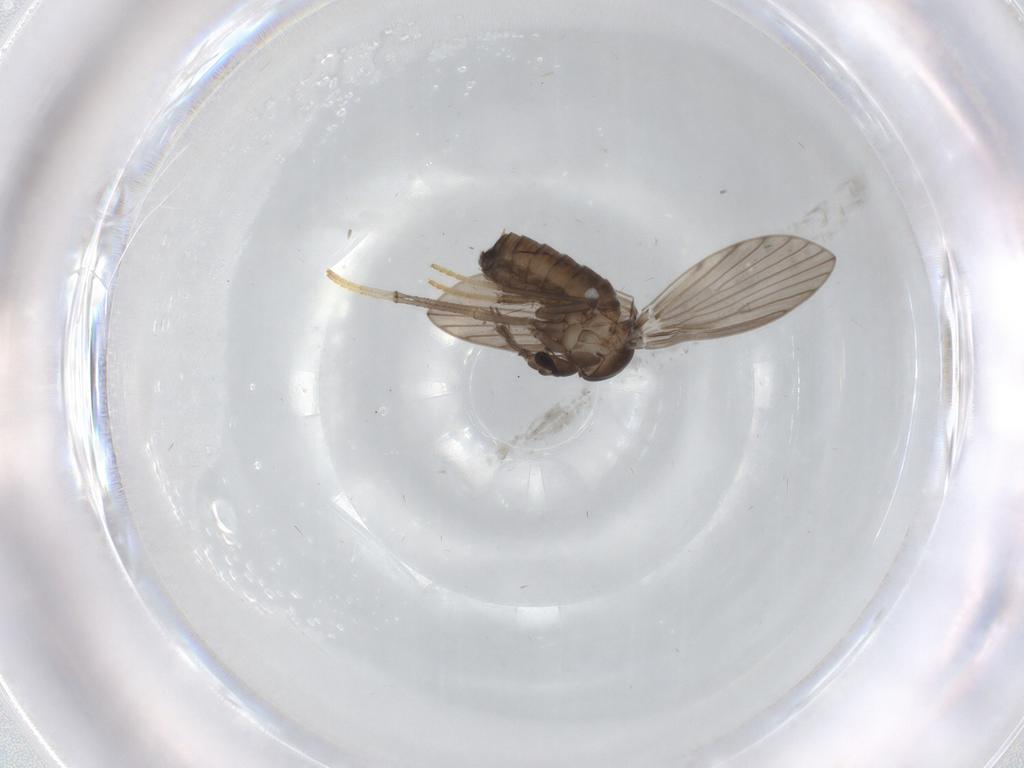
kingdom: Animalia
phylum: Arthropoda
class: Insecta
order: Diptera
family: Psychodidae
